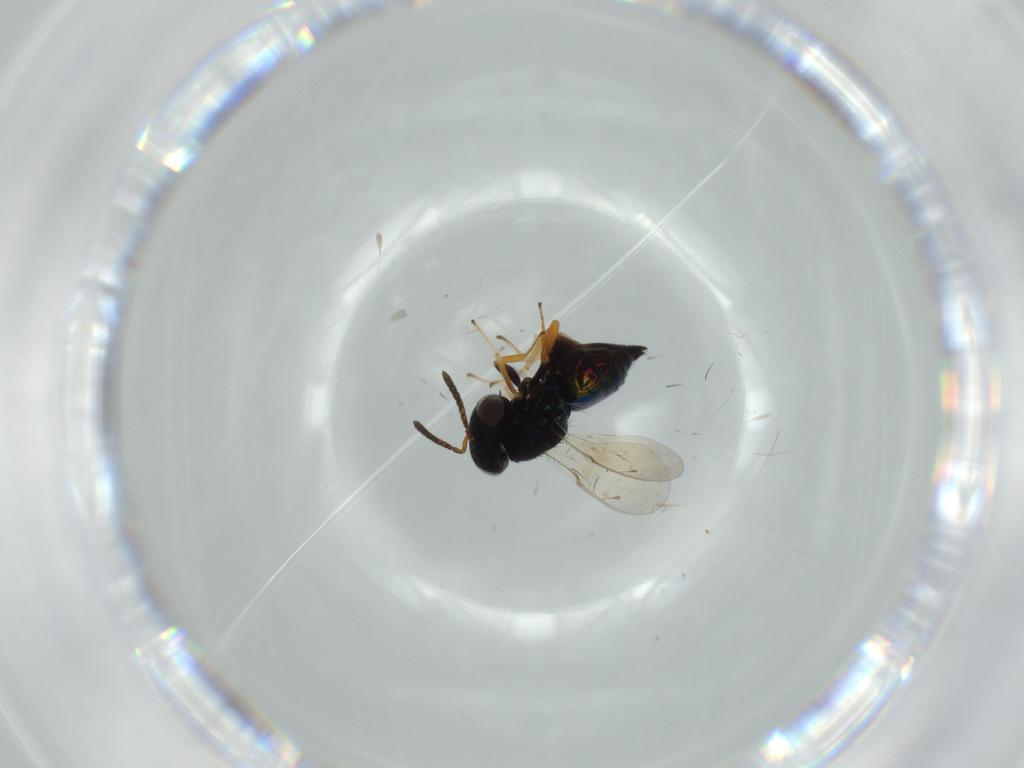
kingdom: Animalia
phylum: Arthropoda
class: Insecta
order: Hymenoptera
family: Pteromalidae
